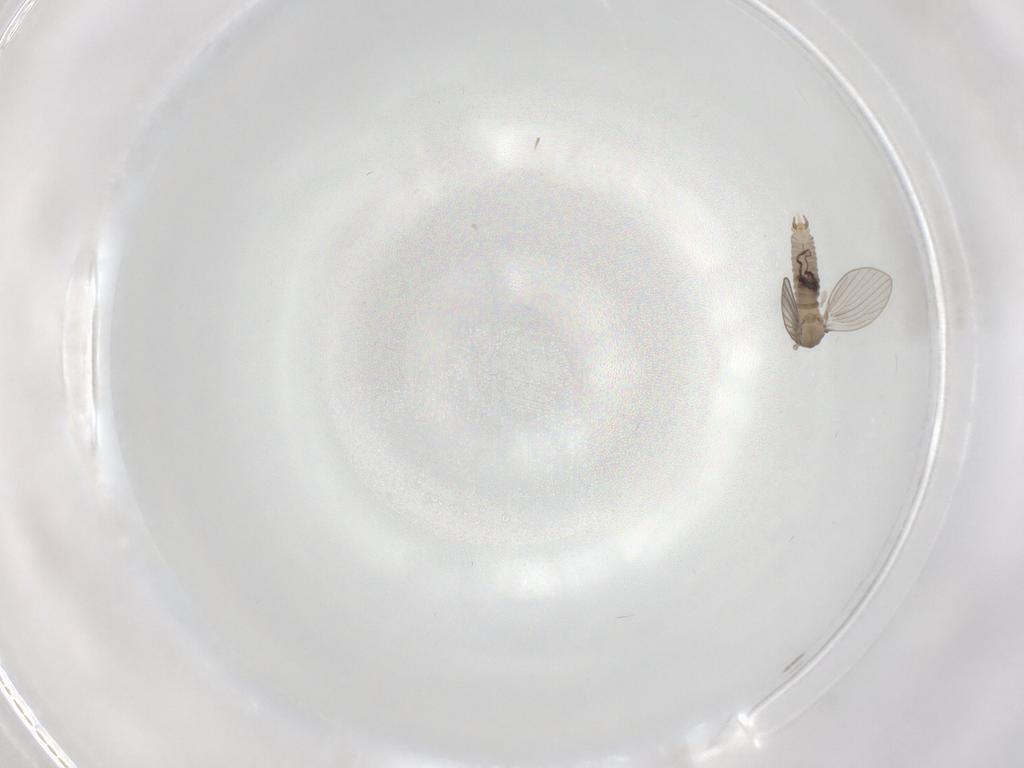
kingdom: Animalia
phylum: Arthropoda
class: Insecta
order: Diptera
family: Psychodidae
